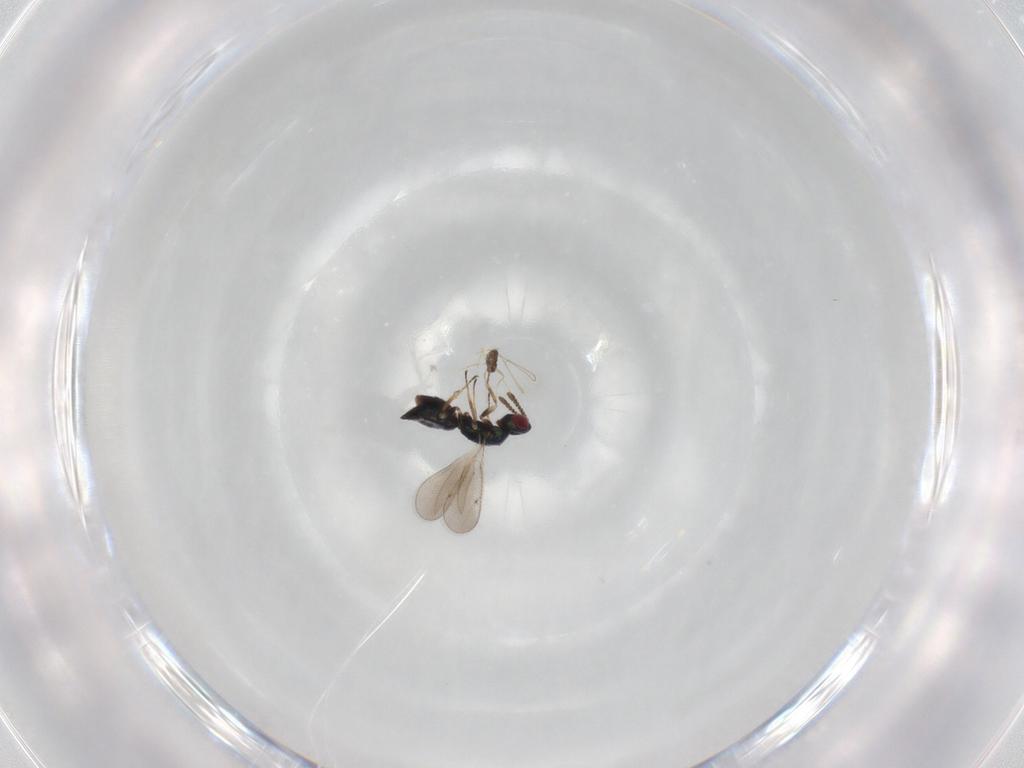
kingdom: Animalia
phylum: Arthropoda
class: Insecta
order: Hymenoptera
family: Tetracampidae
